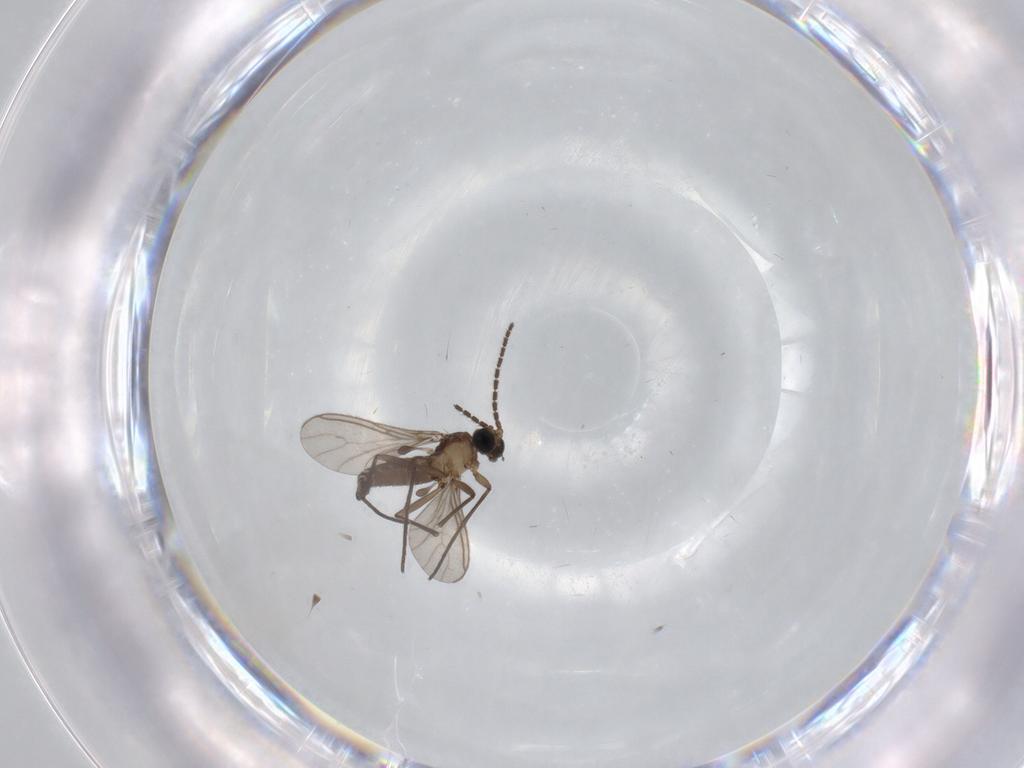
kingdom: Animalia
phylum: Arthropoda
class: Insecta
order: Diptera
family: Sciaridae
